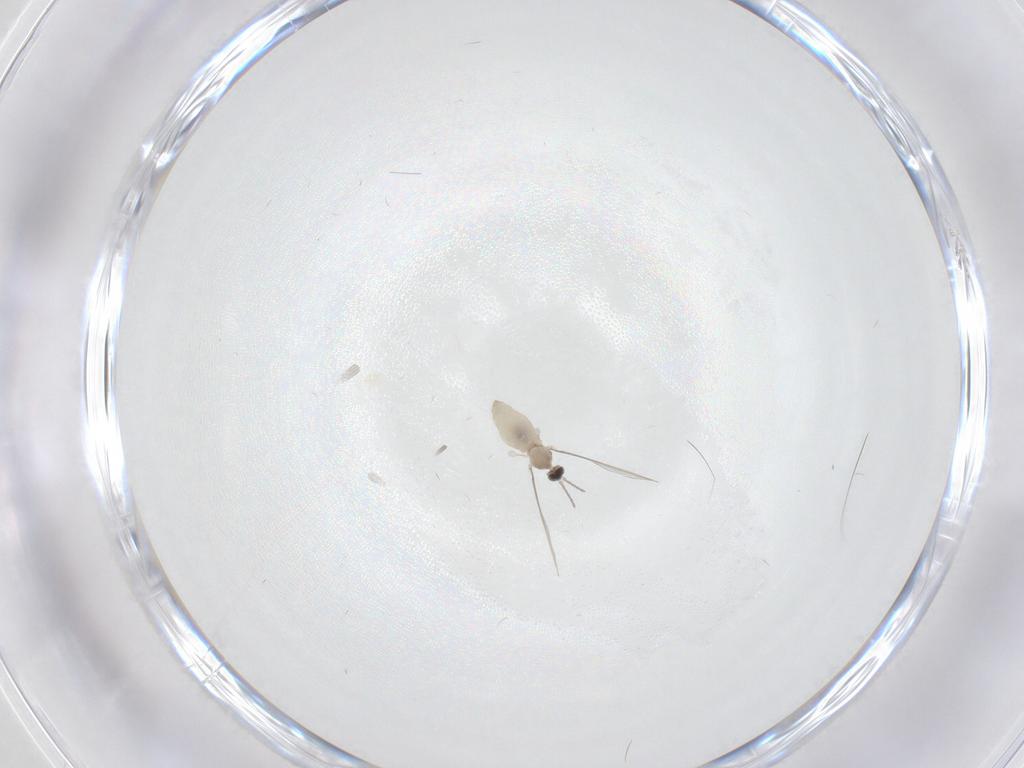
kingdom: Animalia
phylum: Arthropoda
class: Insecta
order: Diptera
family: Cecidomyiidae
